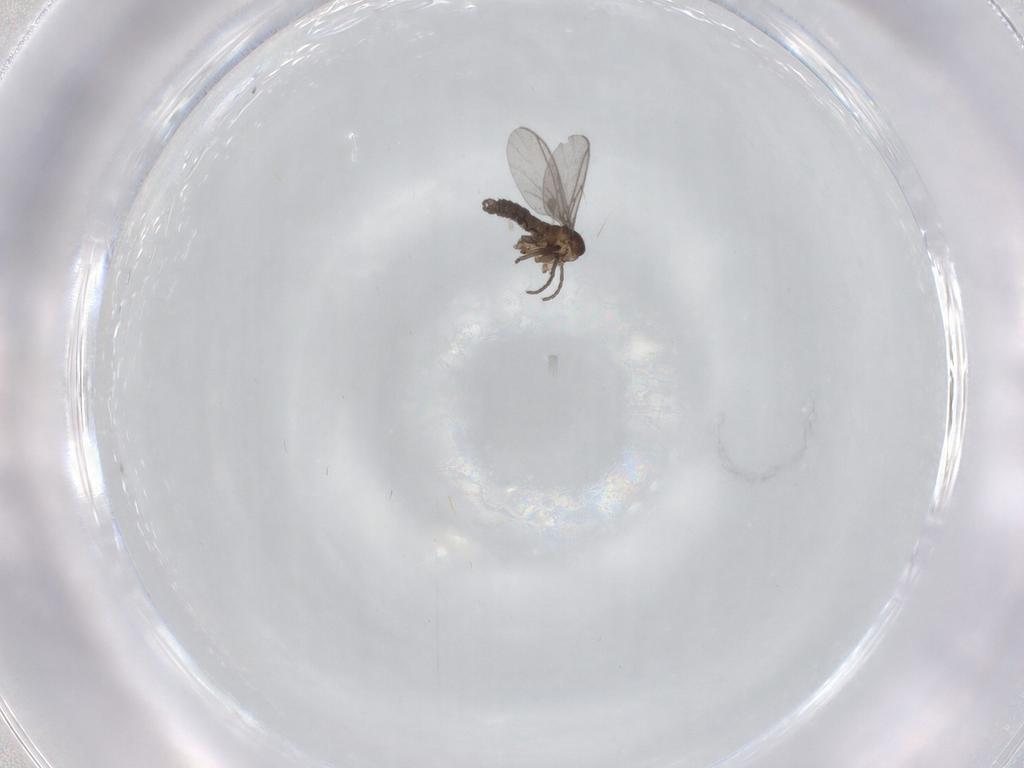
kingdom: Animalia
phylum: Arthropoda
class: Insecta
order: Diptera
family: Sciaridae
